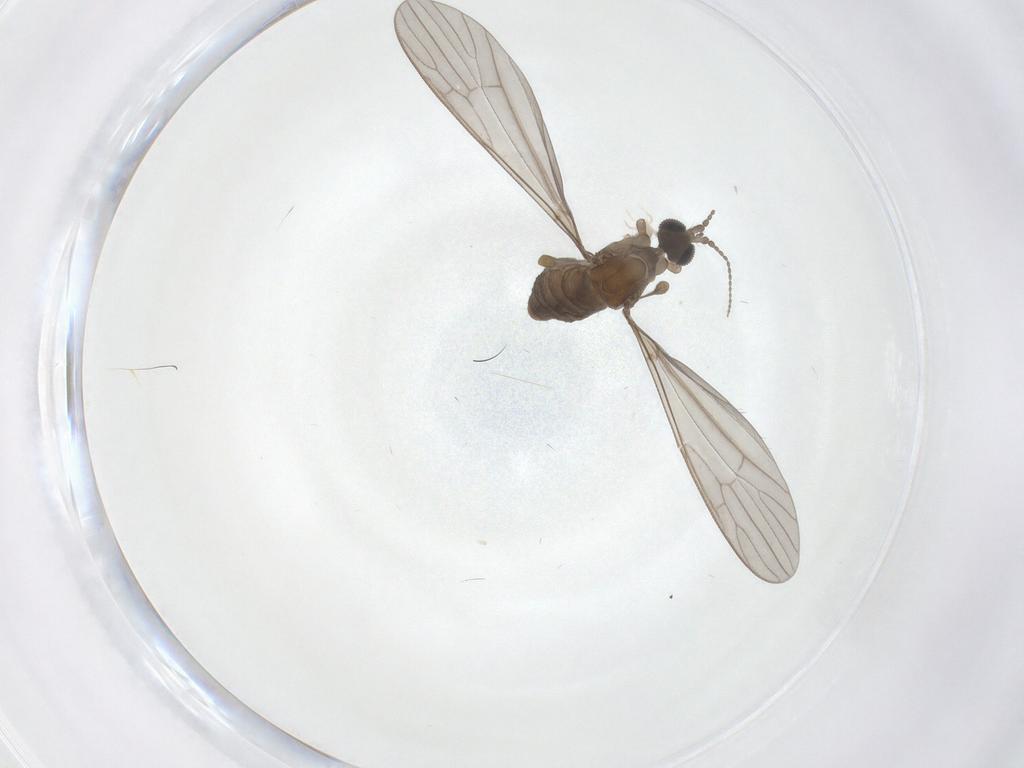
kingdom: Animalia
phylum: Arthropoda
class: Insecta
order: Diptera
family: Limoniidae
